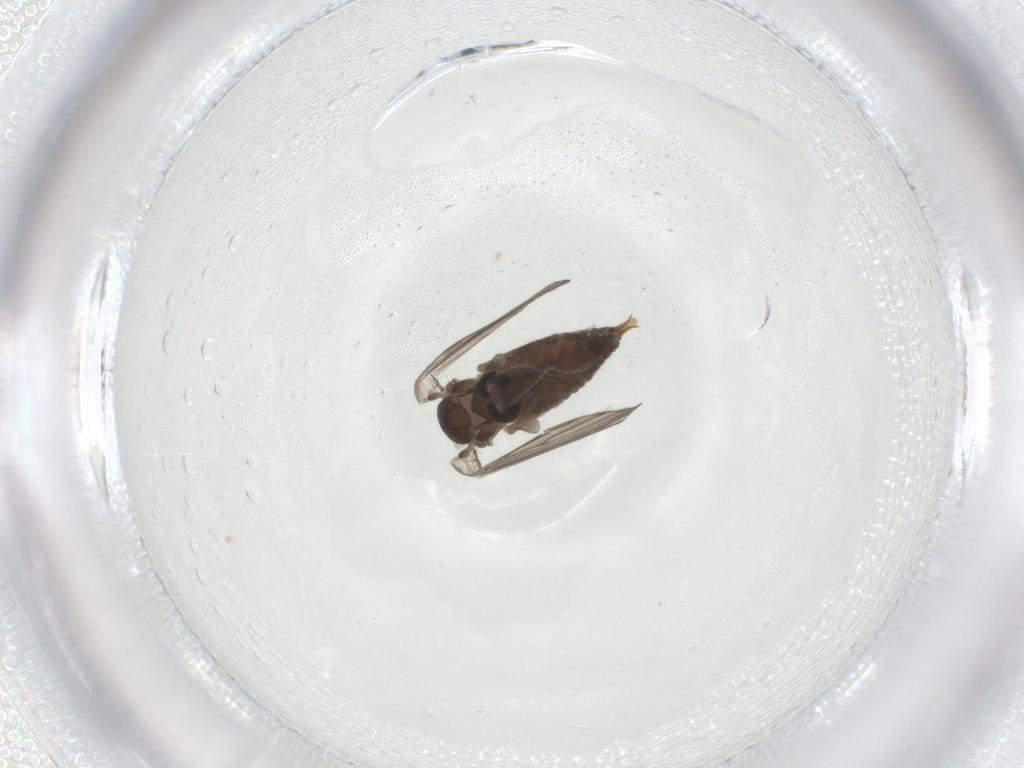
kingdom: Animalia
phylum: Arthropoda
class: Insecta
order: Diptera
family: Psychodidae
